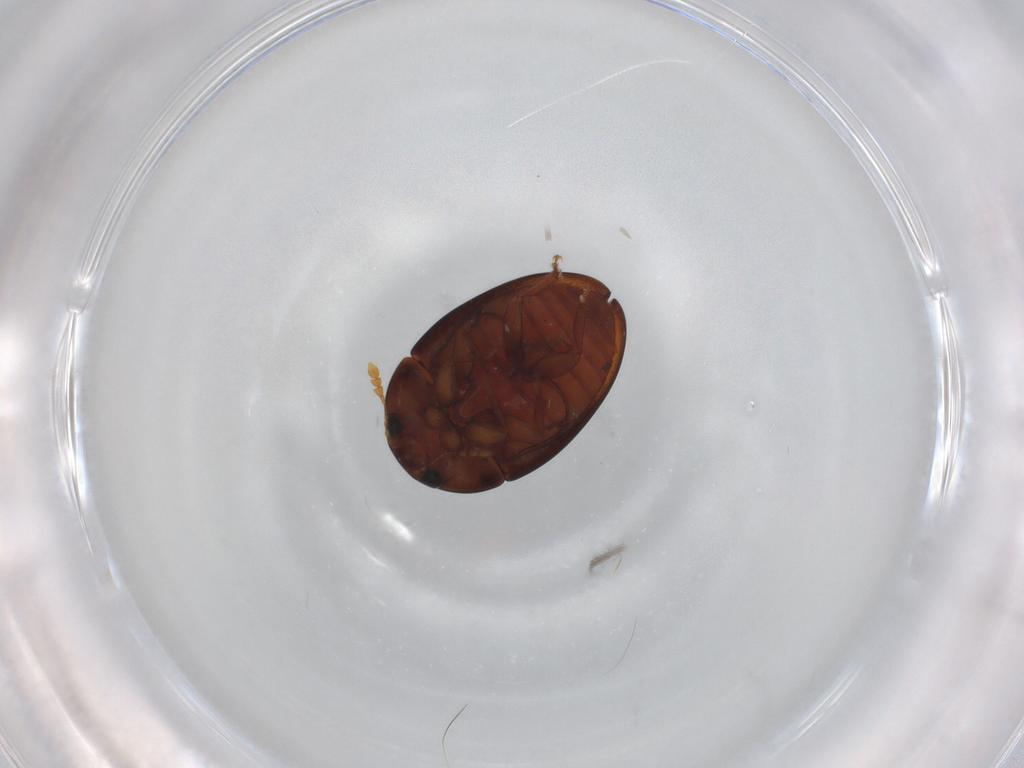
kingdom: Animalia
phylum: Arthropoda
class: Insecta
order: Coleoptera
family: Phalacridae
